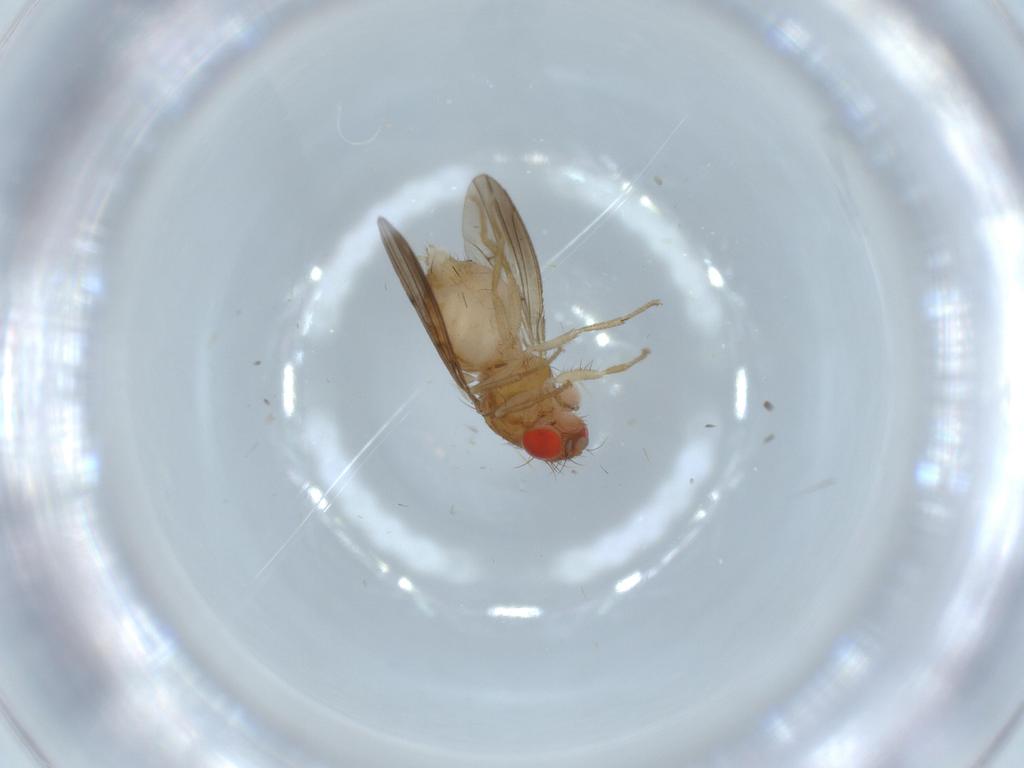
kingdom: Animalia
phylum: Arthropoda
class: Insecta
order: Diptera
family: Drosophilidae
